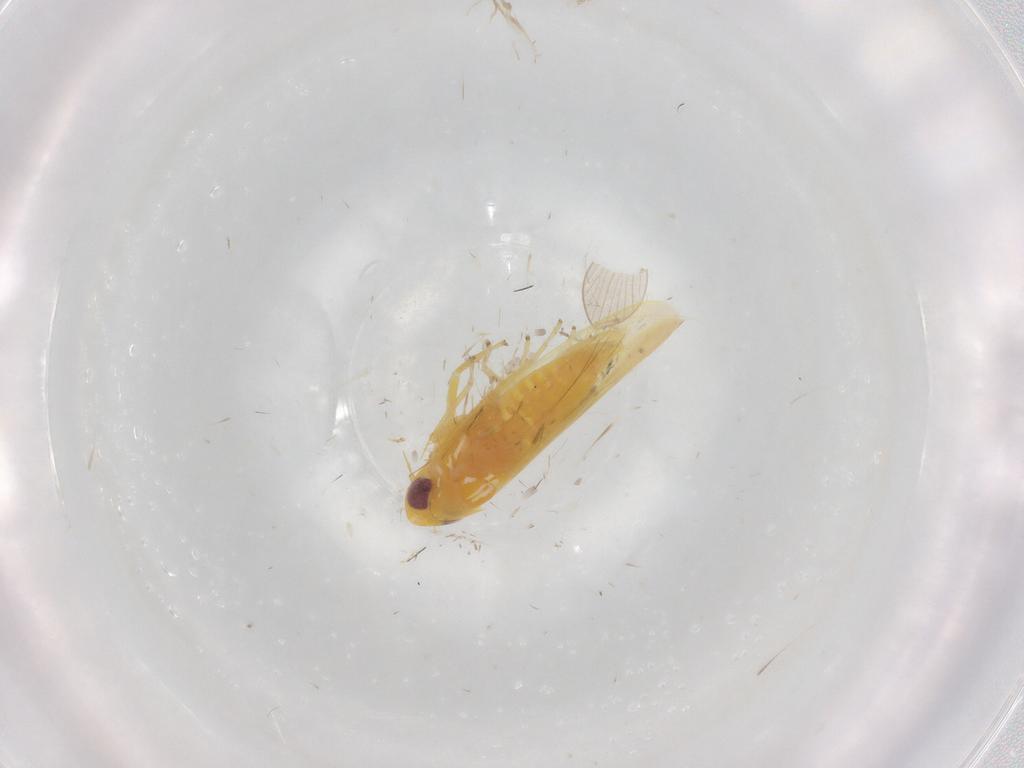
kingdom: Animalia
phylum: Arthropoda
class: Insecta
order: Hemiptera
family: Cicadellidae
